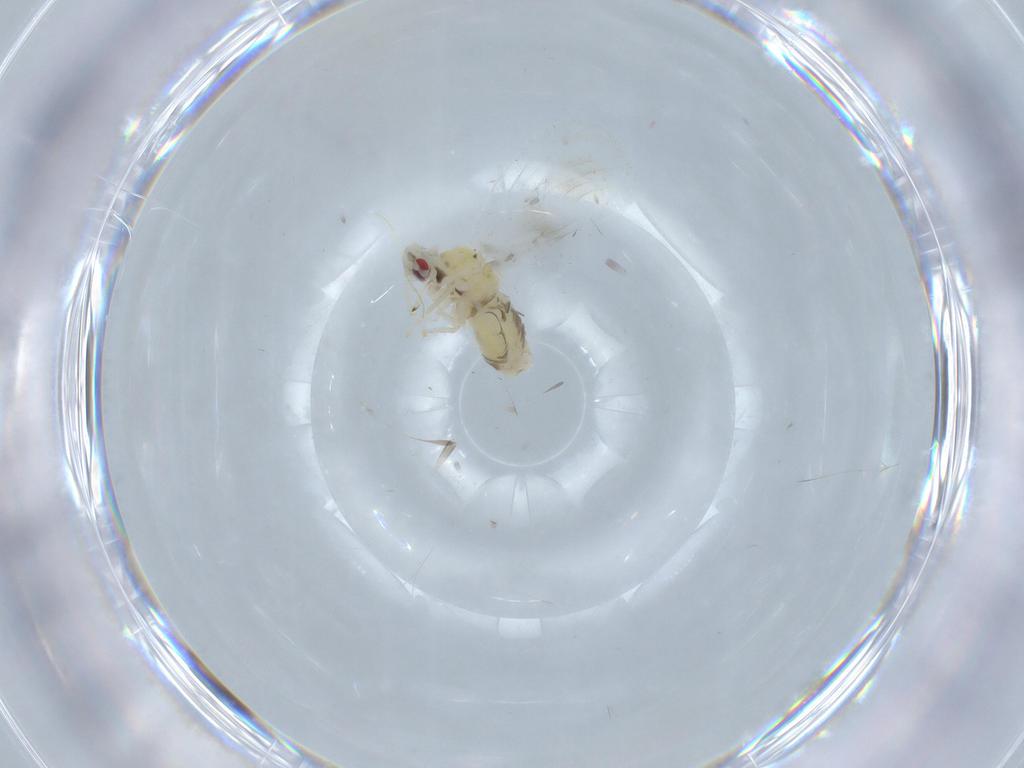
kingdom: Animalia
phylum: Arthropoda
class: Insecta
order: Hemiptera
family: Aleyrodidae
